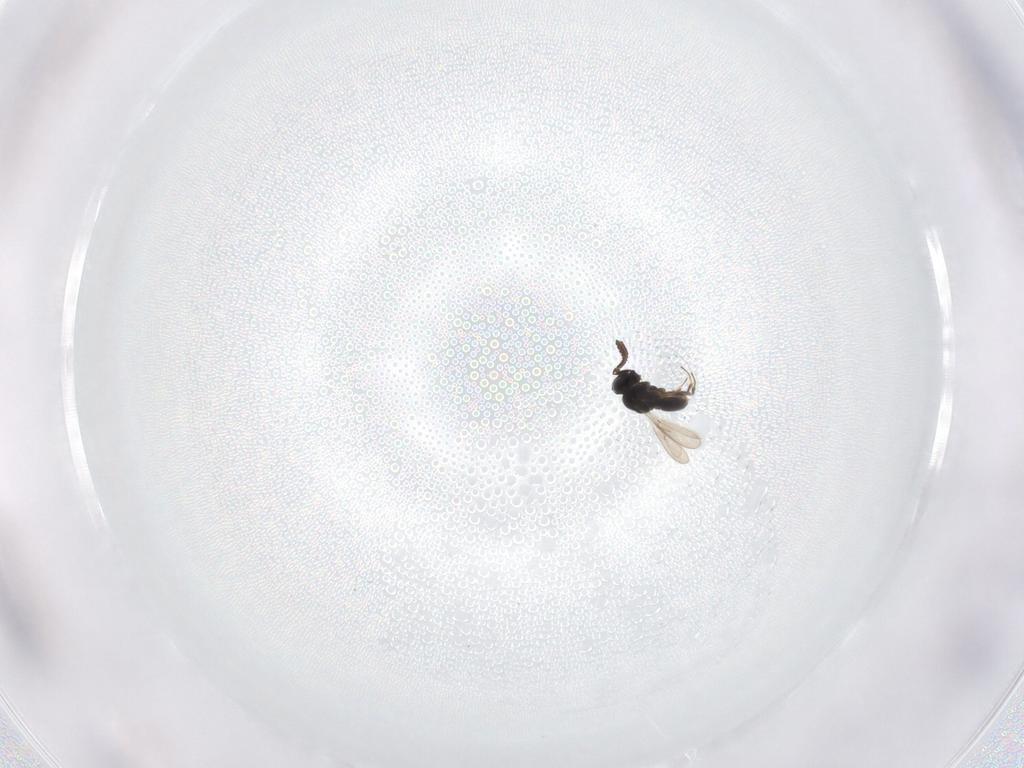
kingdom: Animalia
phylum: Arthropoda
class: Insecta
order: Hymenoptera
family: Scelionidae
